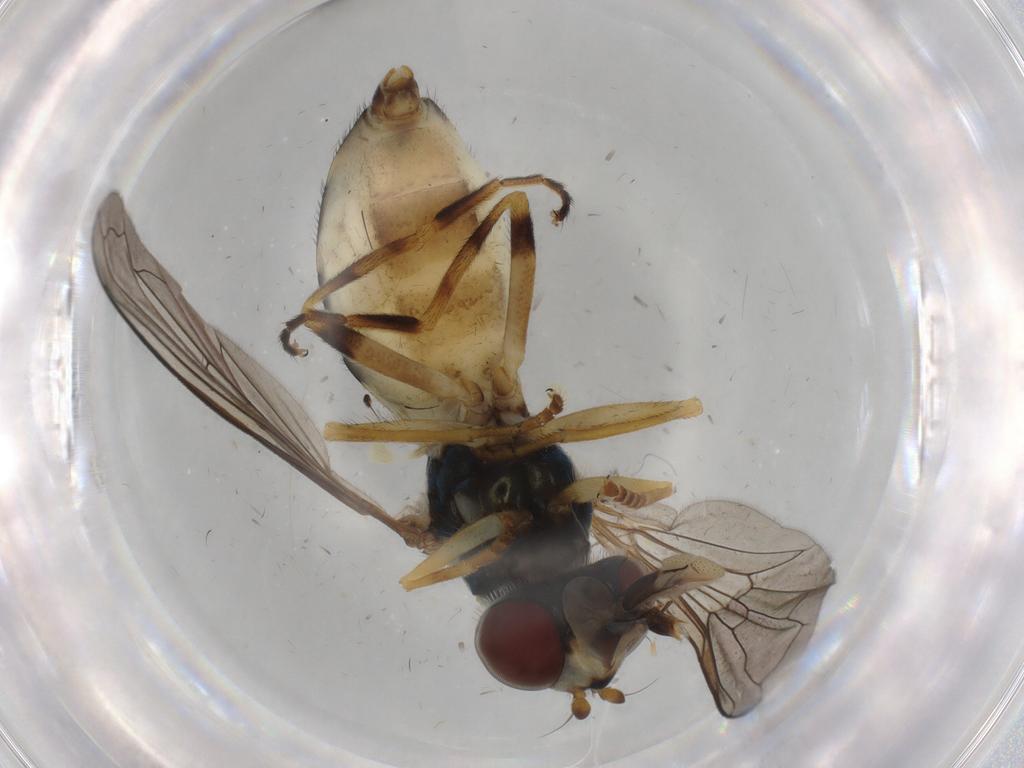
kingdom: Animalia
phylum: Arthropoda
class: Insecta
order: Diptera
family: Syrphidae
